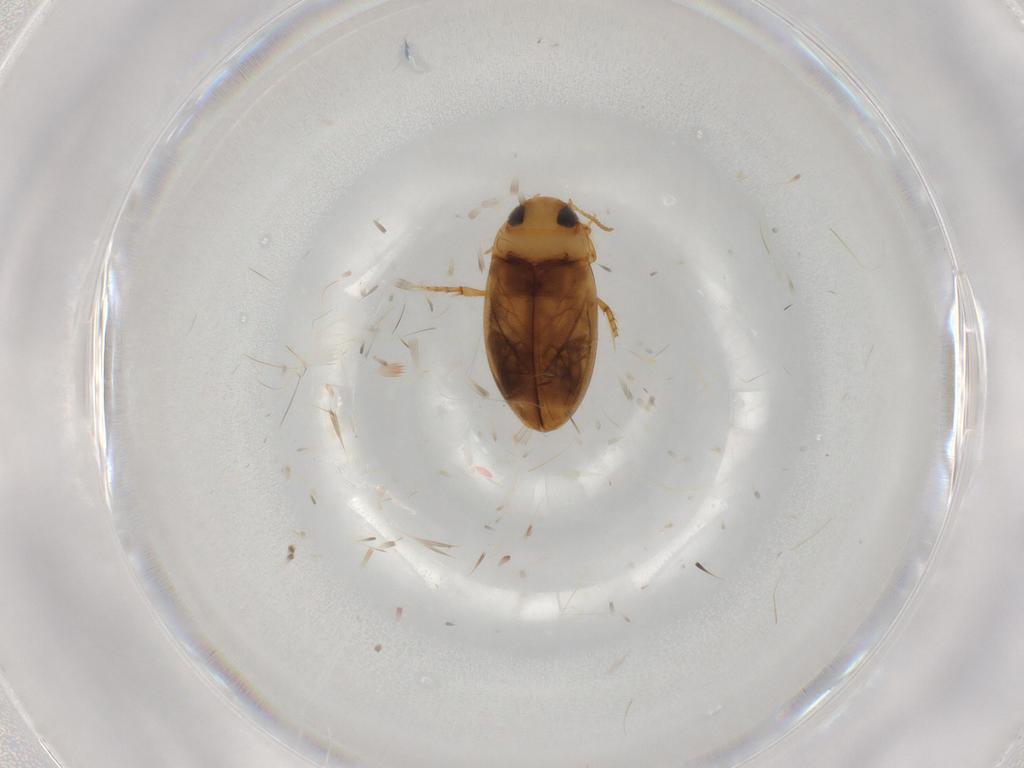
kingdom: Animalia
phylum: Arthropoda
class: Insecta
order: Coleoptera
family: Dytiscidae
